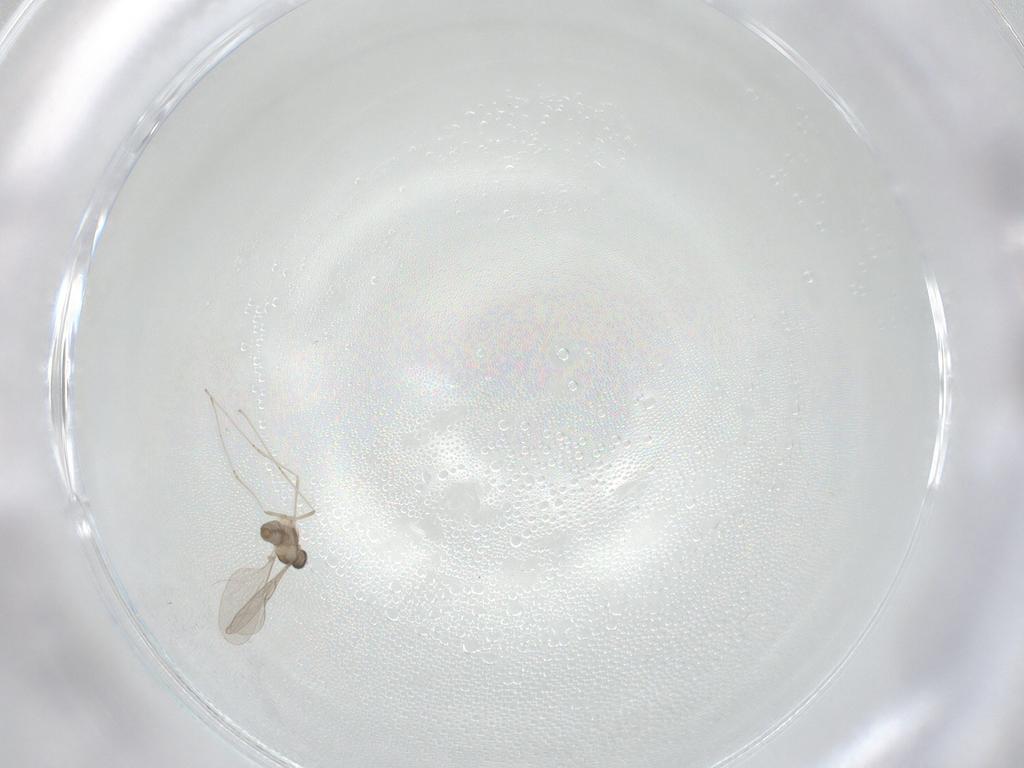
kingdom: Animalia
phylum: Arthropoda
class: Insecta
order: Diptera
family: Cecidomyiidae
